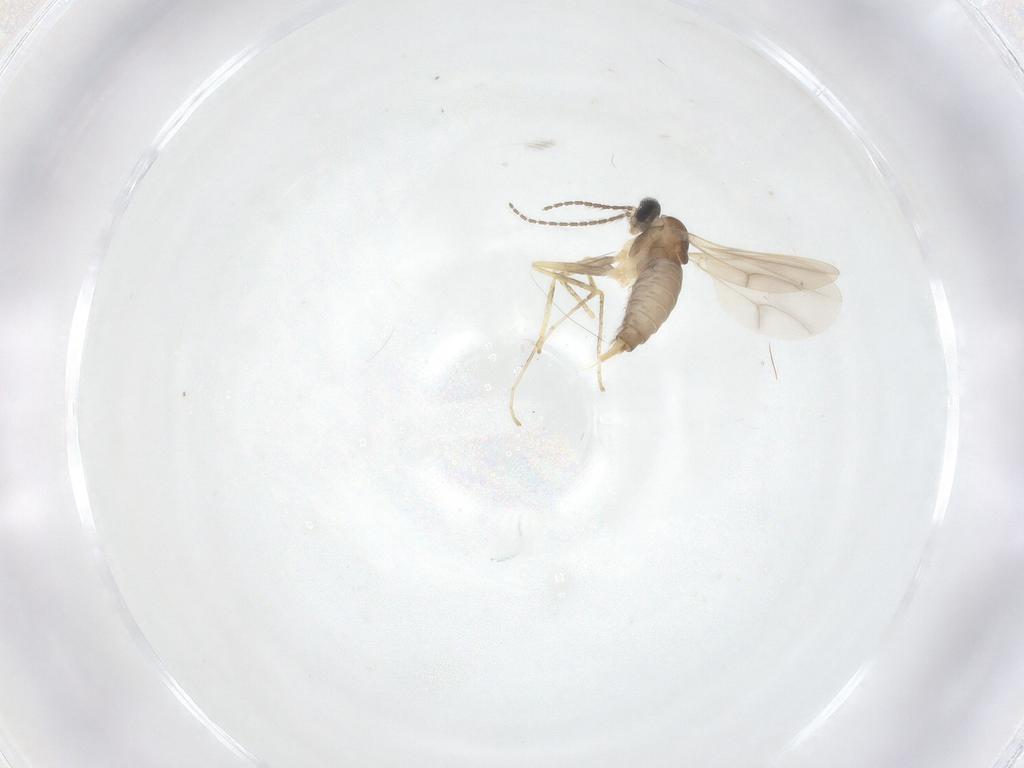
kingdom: Animalia
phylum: Arthropoda
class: Insecta
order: Diptera
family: Cecidomyiidae
